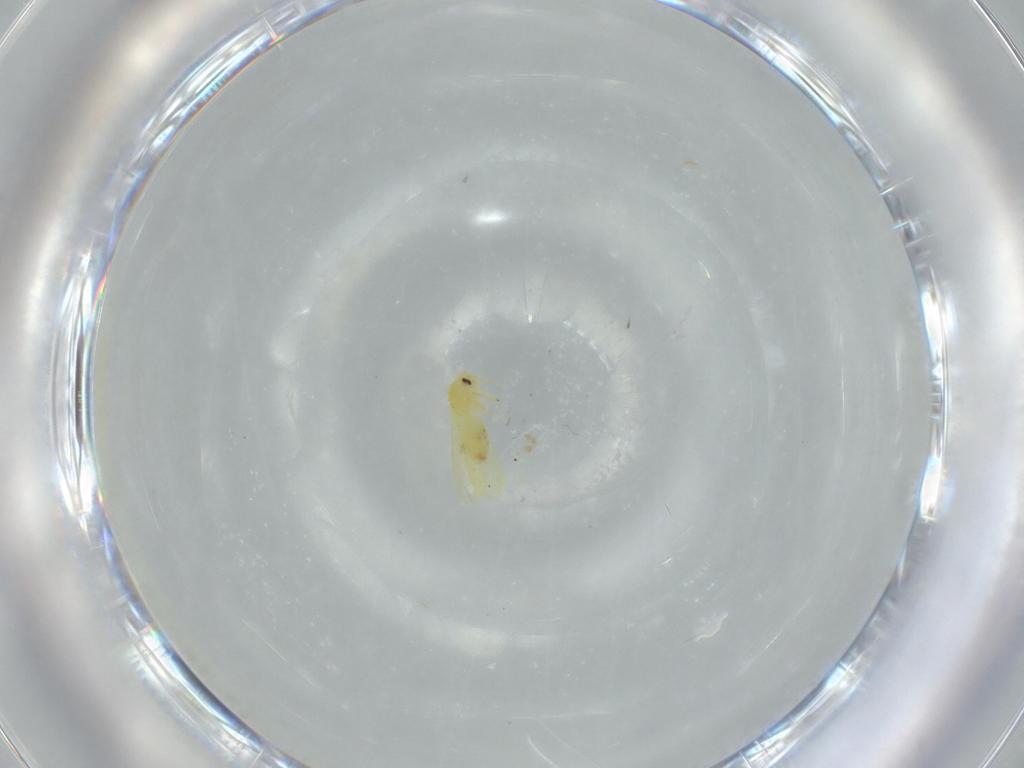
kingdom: Animalia
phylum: Arthropoda
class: Insecta
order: Hemiptera
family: Aleyrodidae
